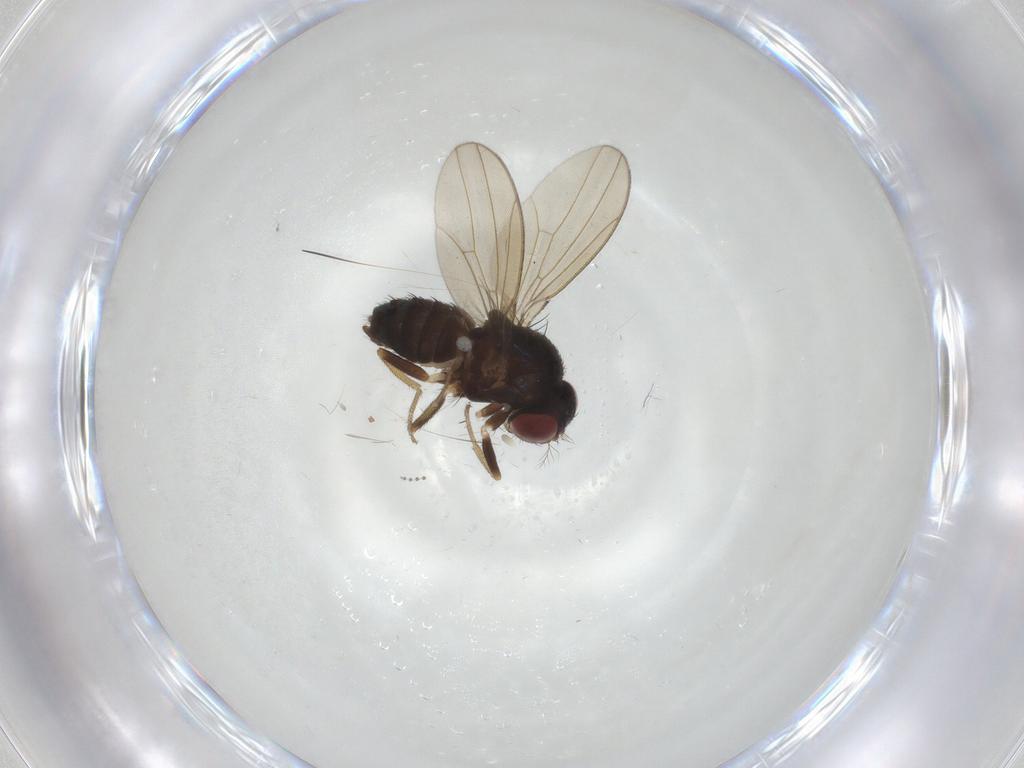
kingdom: Animalia
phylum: Arthropoda
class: Insecta
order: Diptera
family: Drosophilidae
